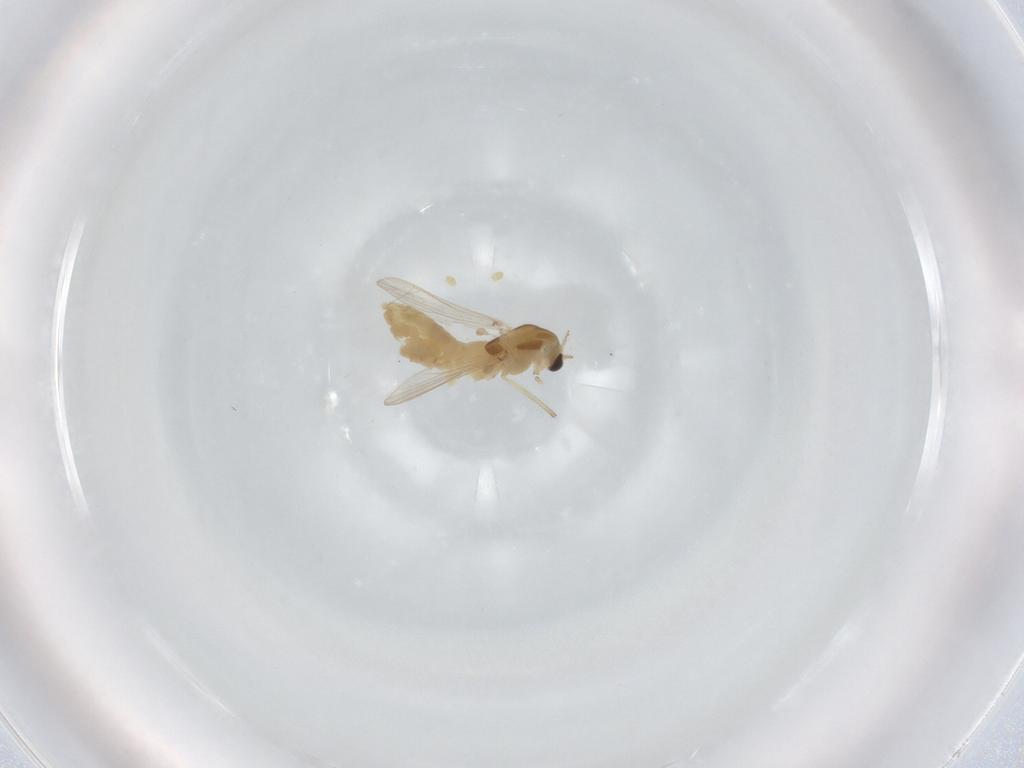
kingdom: Animalia
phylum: Arthropoda
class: Insecta
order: Diptera
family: Chironomidae
